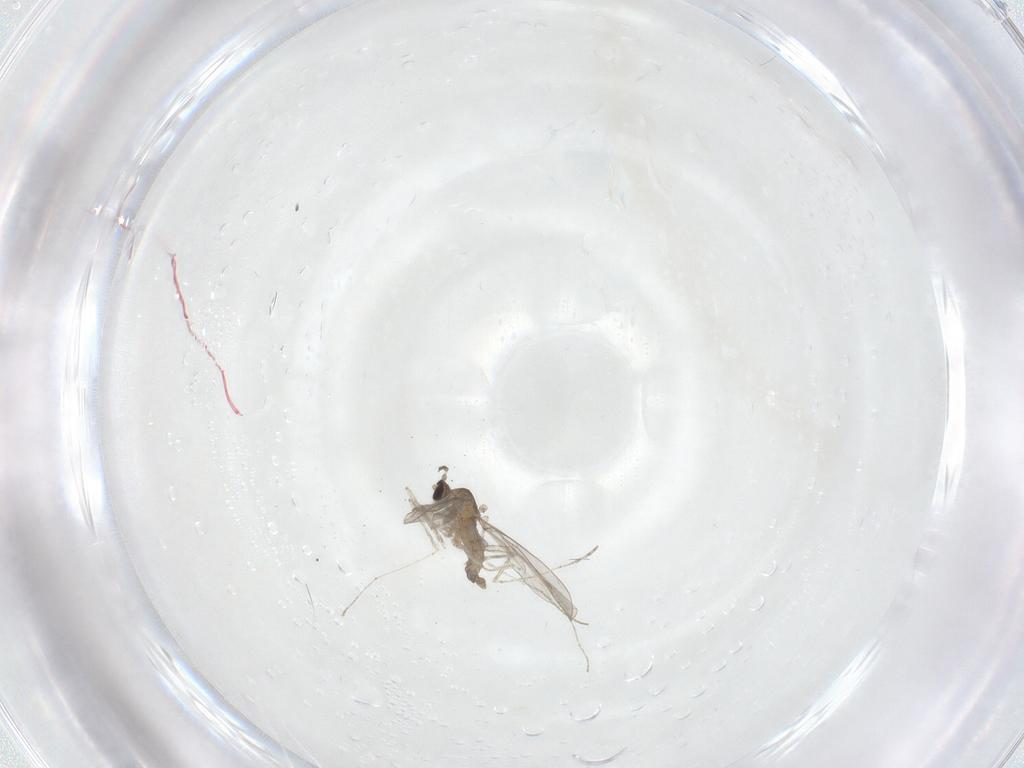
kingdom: Animalia
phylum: Arthropoda
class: Insecta
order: Diptera
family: Cecidomyiidae
